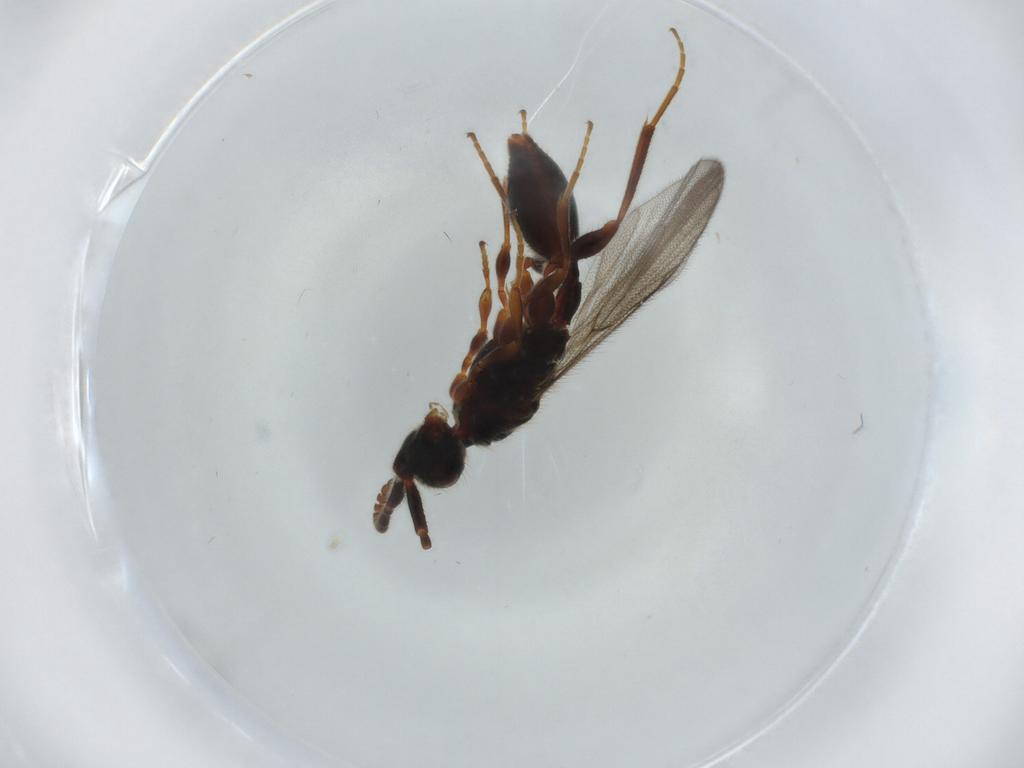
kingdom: Animalia
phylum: Arthropoda
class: Insecta
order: Hymenoptera
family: Diapriidae
